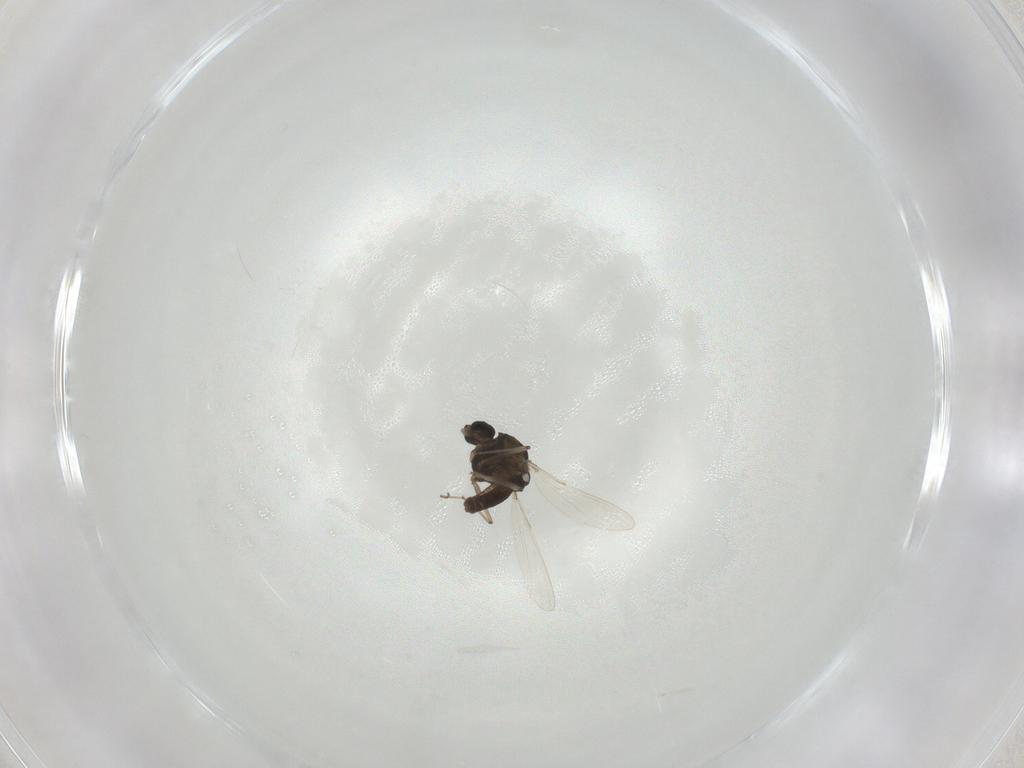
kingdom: Animalia
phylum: Arthropoda
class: Insecta
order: Diptera
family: Chironomidae
